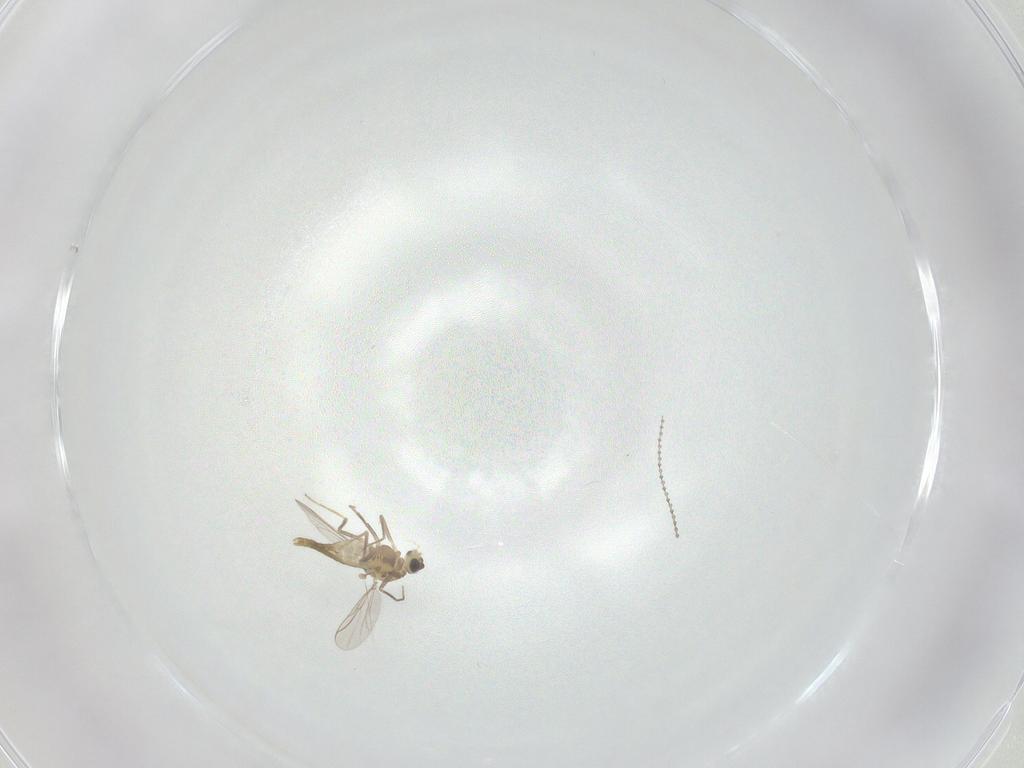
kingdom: Animalia
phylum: Arthropoda
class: Insecta
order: Diptera
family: Chironomidae
